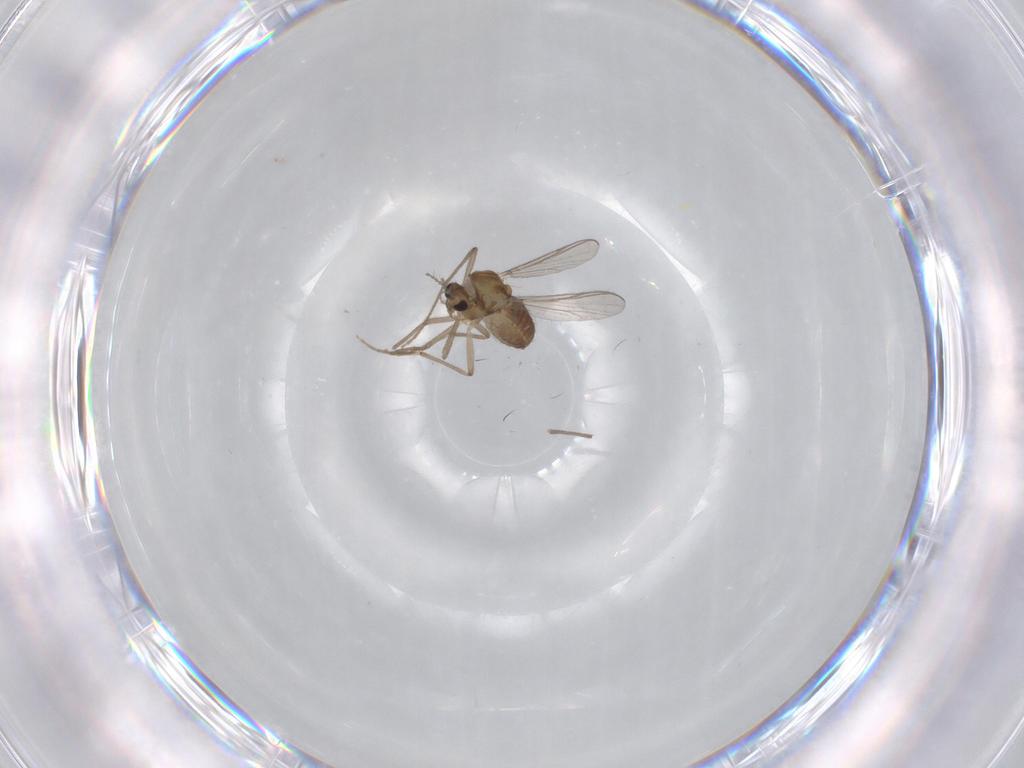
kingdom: Animalia
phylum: Arthropoda
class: Insecta
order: Diptera
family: Chironomidae
